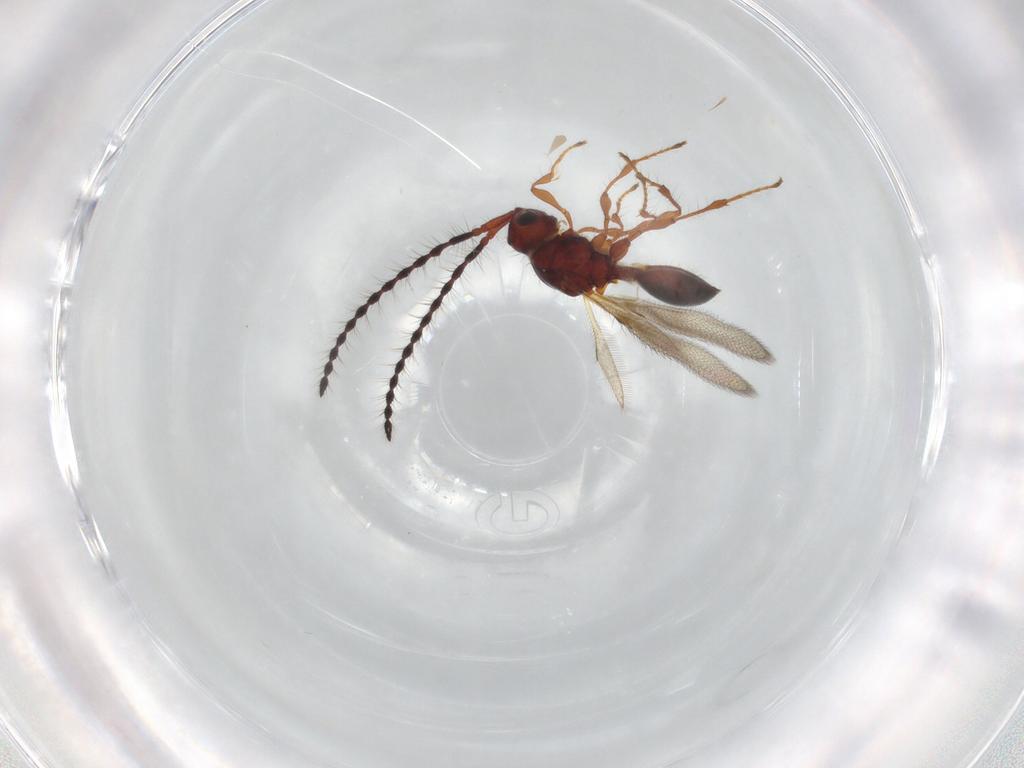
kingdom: Animalia
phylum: Arthropoda
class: Insecta
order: Hymenoptera
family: Diapriidae
